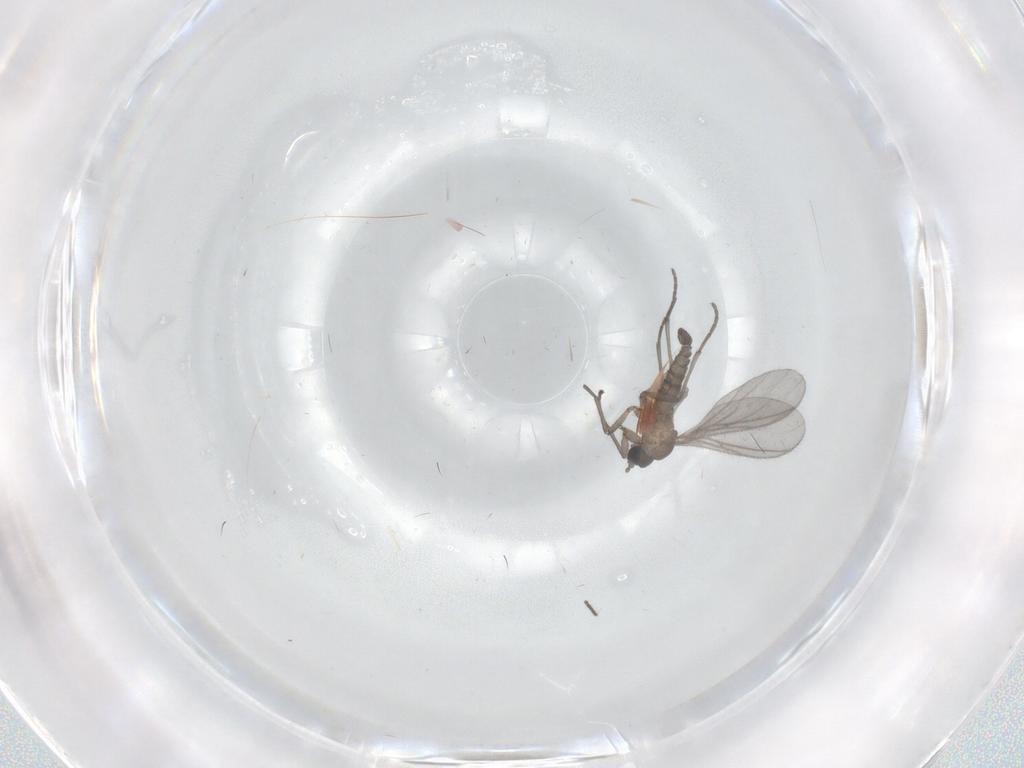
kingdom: Animalia
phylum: Arthropoda
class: Insecta
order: Diptera
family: Sciaridae
